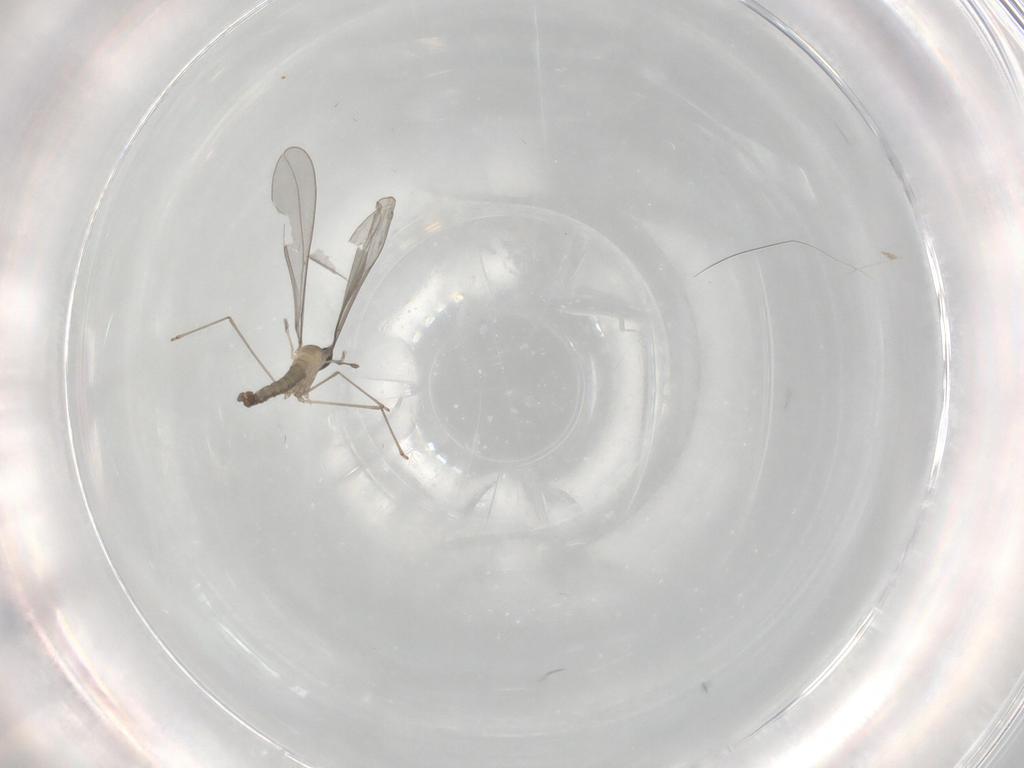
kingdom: Animalia
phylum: Arthropoda
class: Insecta
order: Diptera
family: Cecidomyiidae
